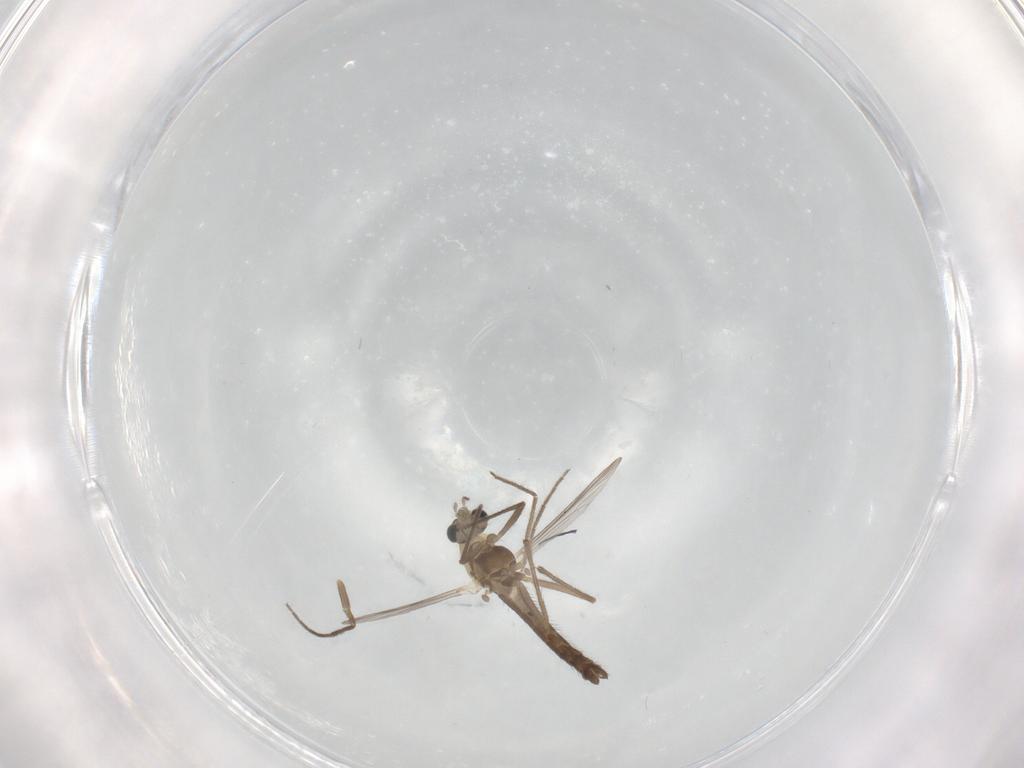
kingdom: Animalia
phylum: Arthropoda
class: Insecta
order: Diptera
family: Chironomidae
